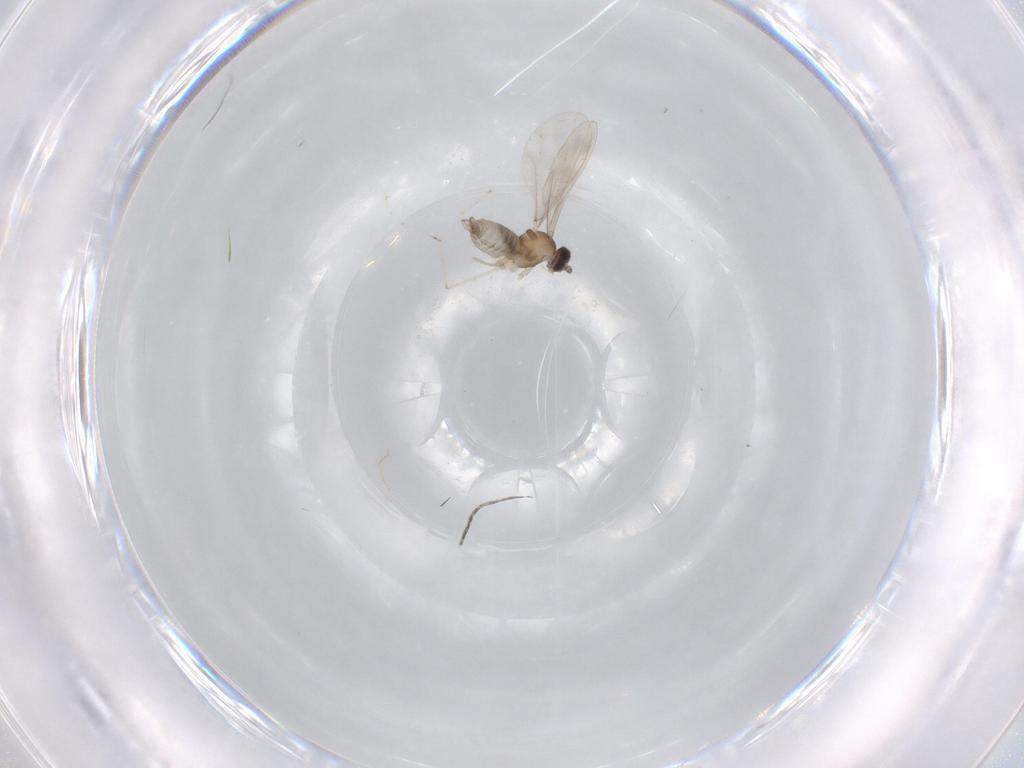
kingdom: Animalia
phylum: Arthropoda
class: Insecta
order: Diptera
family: Cecidomyiidae
